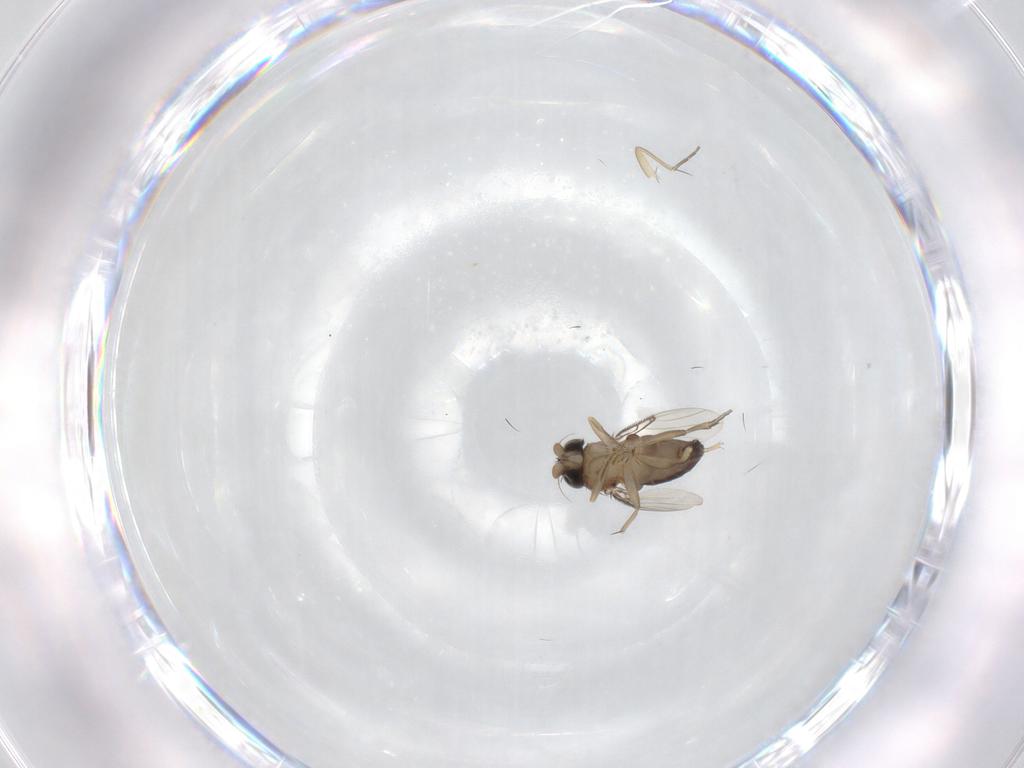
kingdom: Animalia
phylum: Arthropoda
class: Insecta
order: Diptera
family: Phoridae
